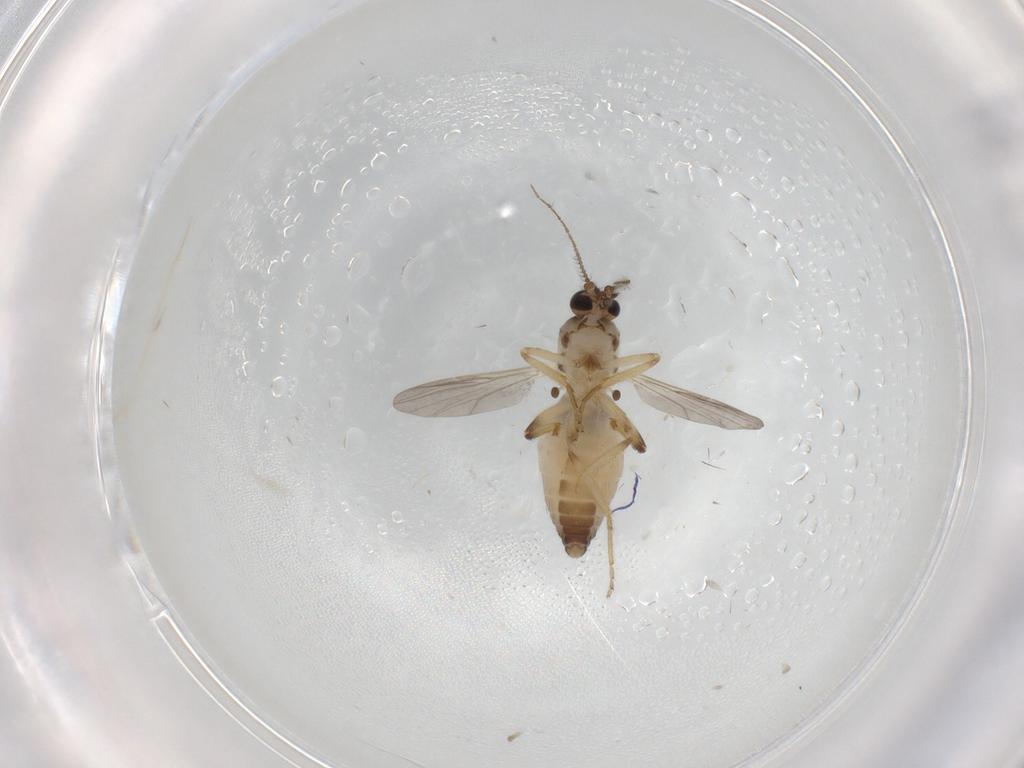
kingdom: Animalia
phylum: Arthropoda
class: Insecta
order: Diptera
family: Ceratopogonidae
